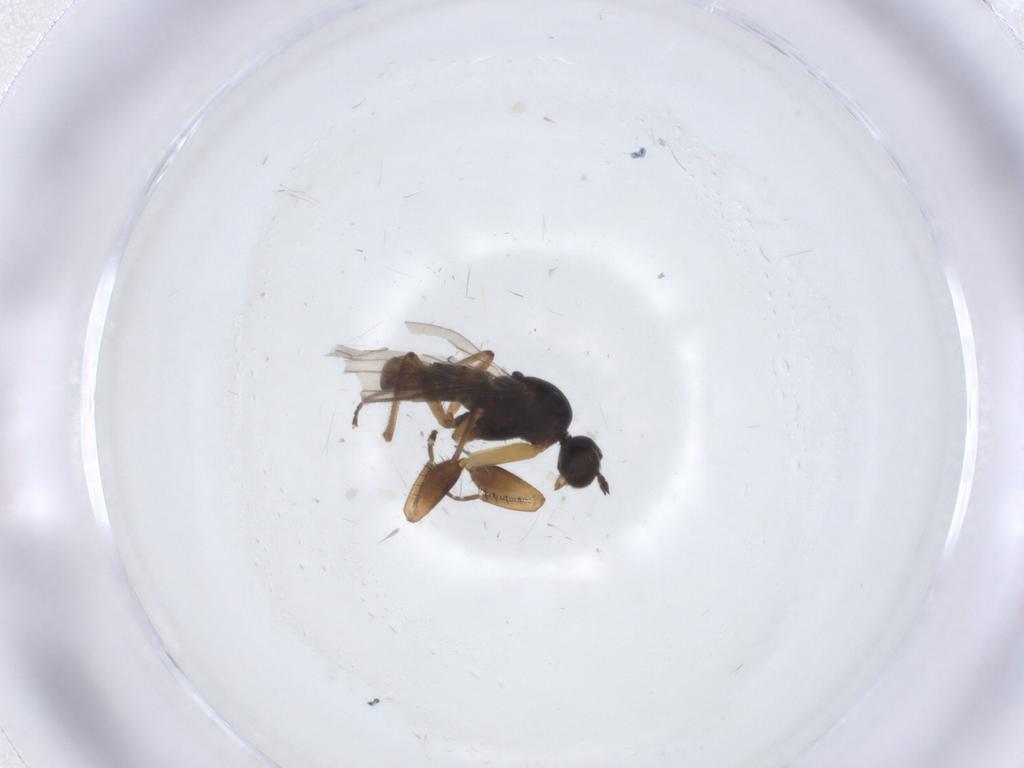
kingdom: Animalia
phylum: Arthropoda
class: Insecta
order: Diptera
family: Empididae
